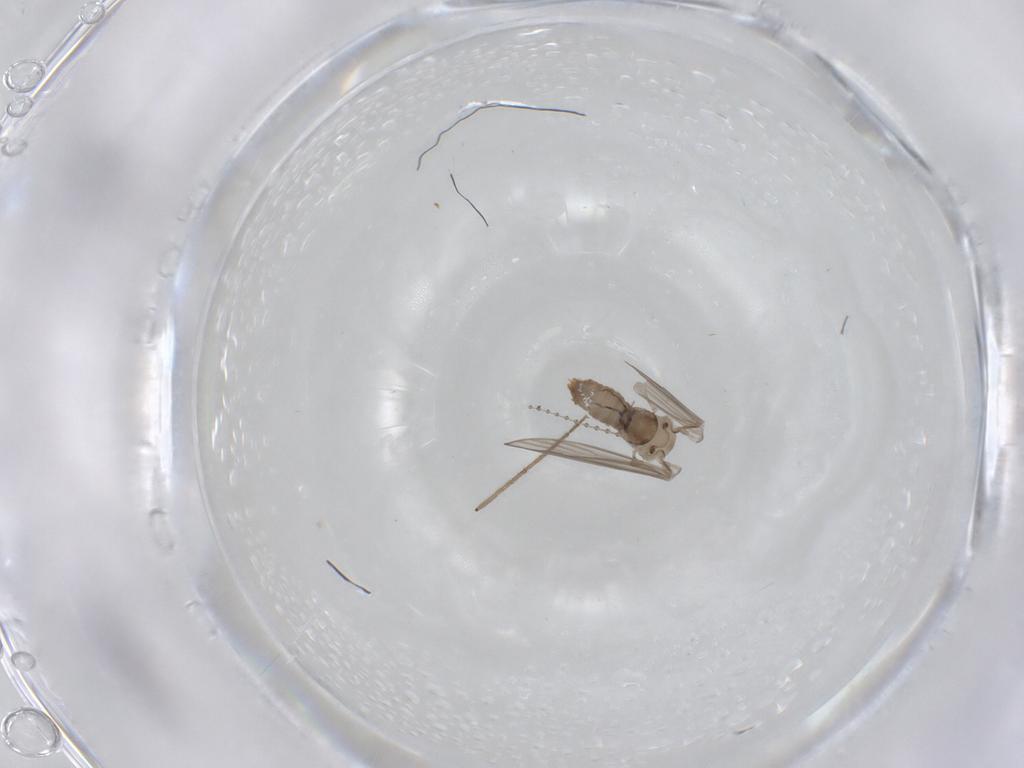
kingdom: Animalia
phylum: Arthropoda
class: Insecta
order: Diptera
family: Psychodidae
